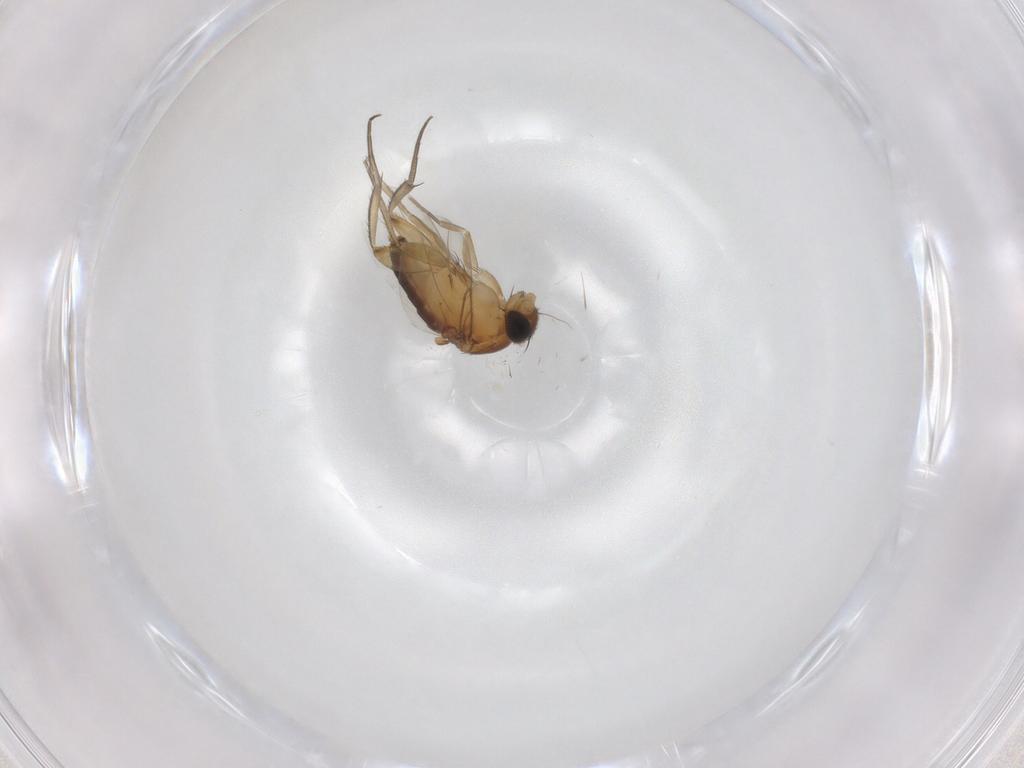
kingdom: Animalia
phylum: Arthropoda
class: Insecta
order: Diptera
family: Phoridae
